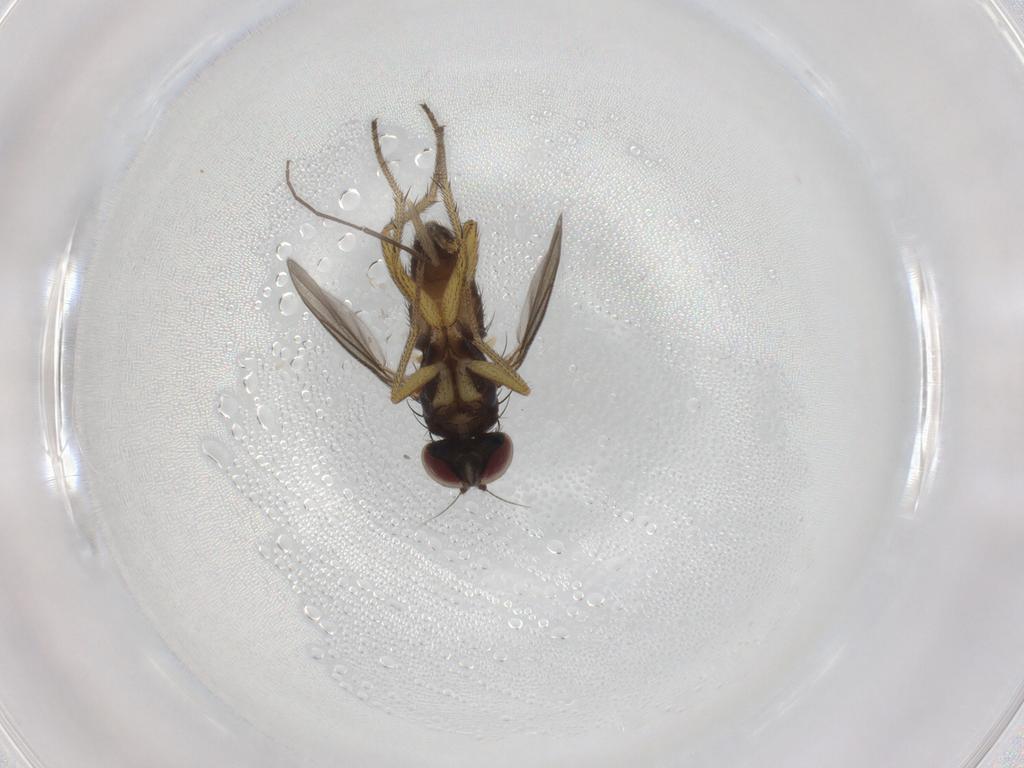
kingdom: Animalia
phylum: Arthropoda
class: Insecta
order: Diptera
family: Dolichopodidae
